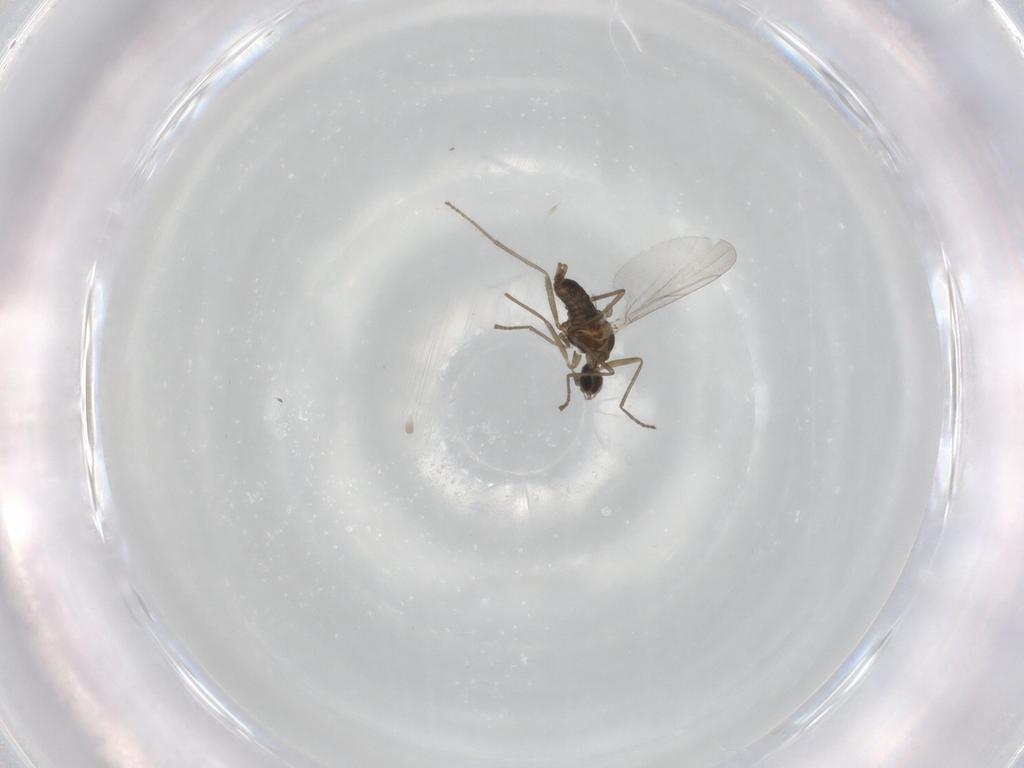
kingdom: Animalia
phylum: Arthropoda
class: Insecta
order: Diptera
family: Cecidomyiidae
